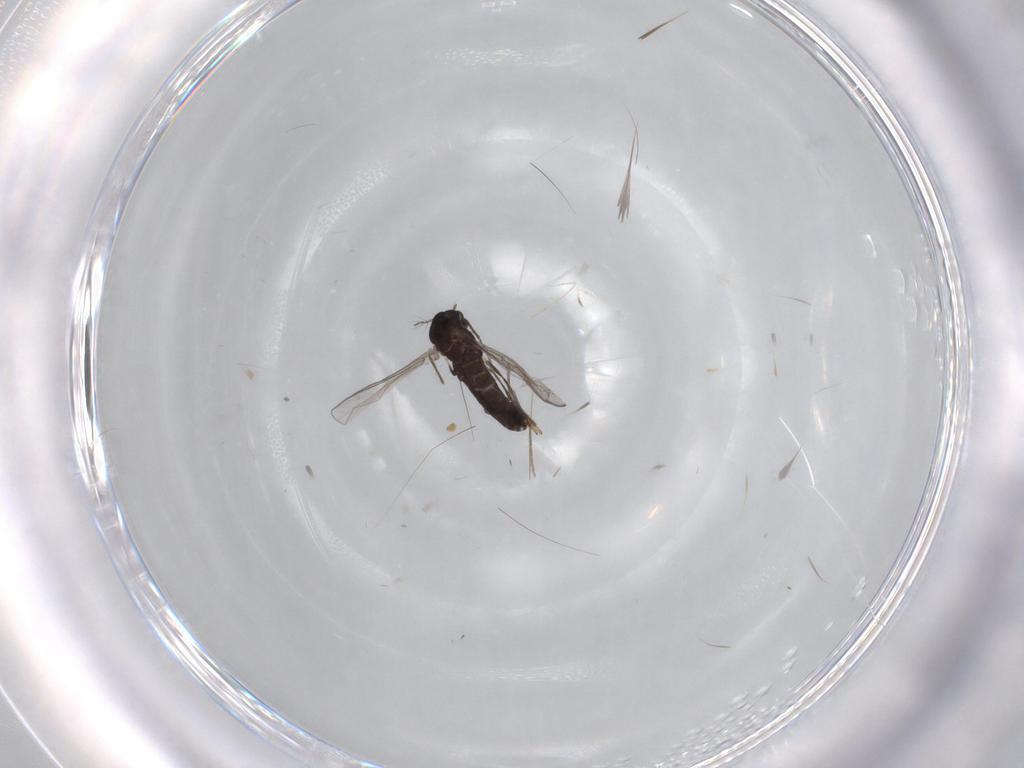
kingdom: Animalia
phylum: Arthropoda
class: Insecta
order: Diptera
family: Chironomidae
